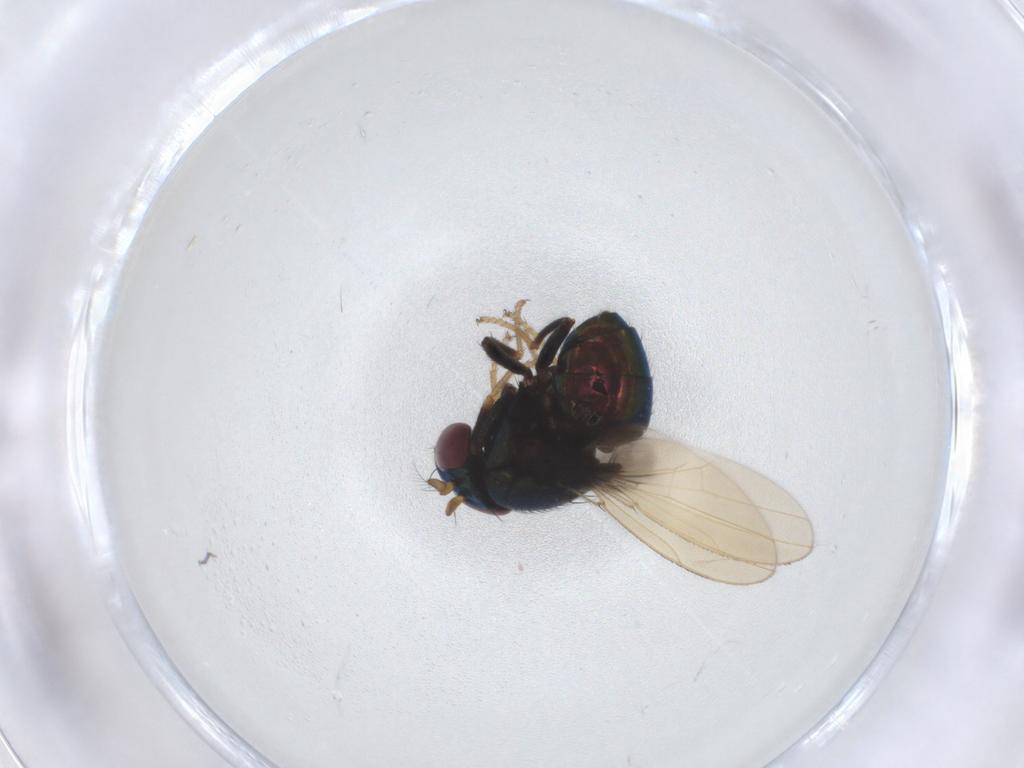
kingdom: Animalia
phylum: Arthropoda
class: Insecta
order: Diptera
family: Ephydridae
